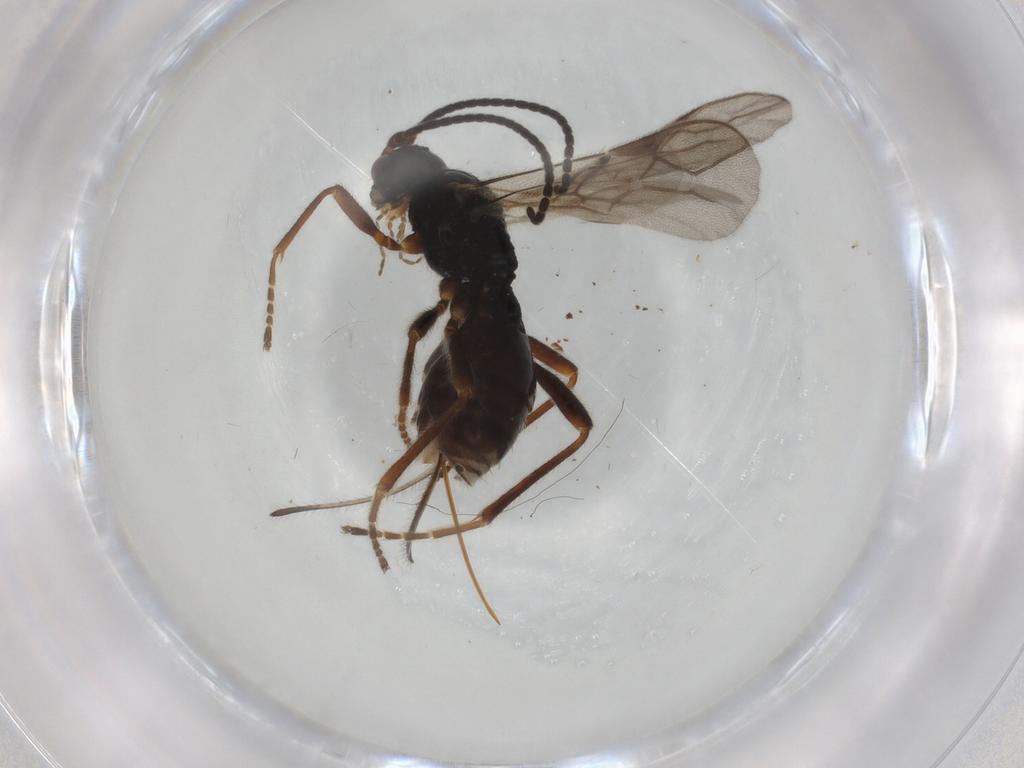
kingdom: Animalia
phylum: Arthropoda
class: Insecta
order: Hymenoptera
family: Braconidae
